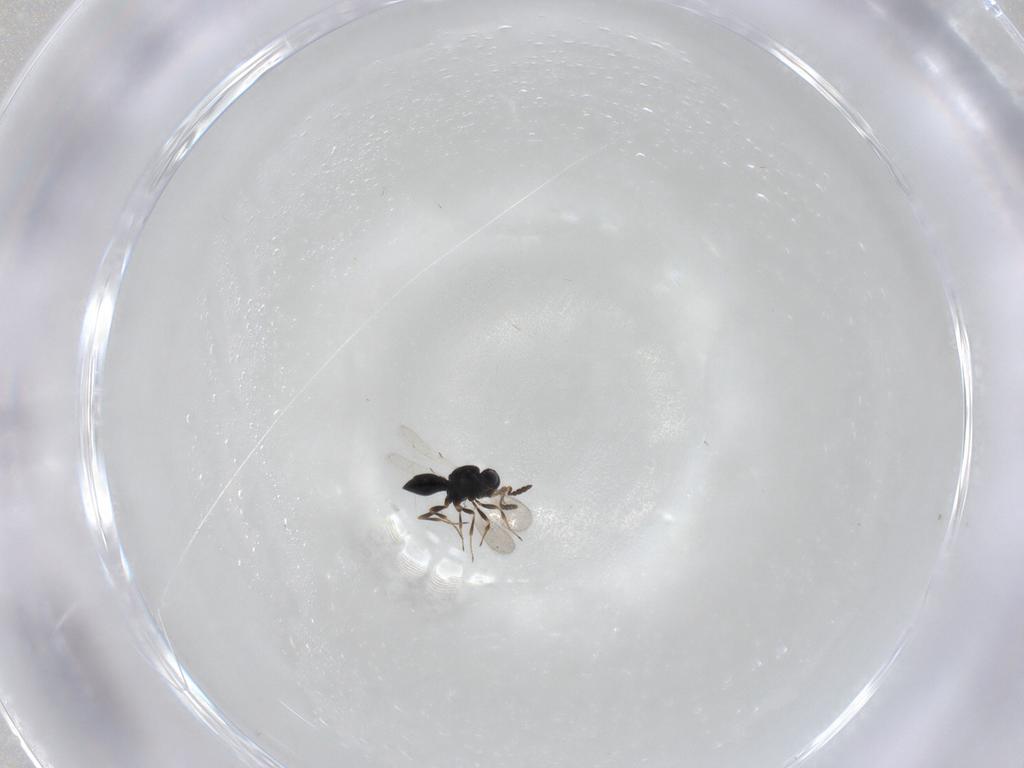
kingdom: Animalia
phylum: Arthropoda
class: Insecta
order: Hymenoptera
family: Scelionidae
